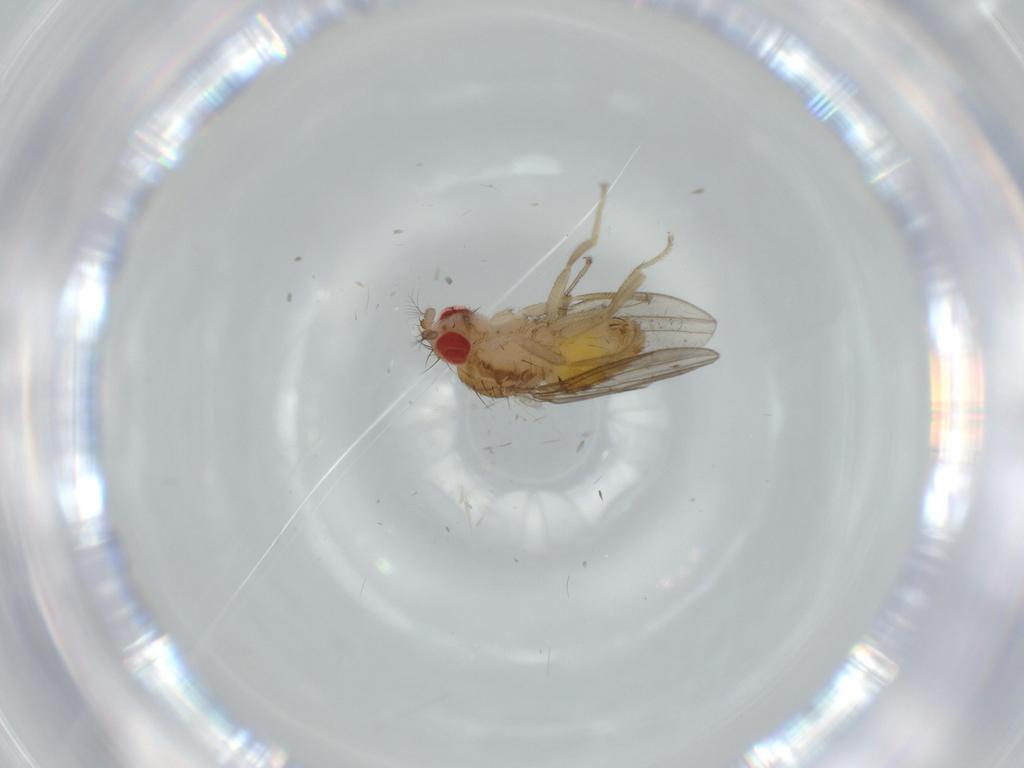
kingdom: Animalia
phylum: Arthropoda
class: Insecta
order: Diptera
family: Drosophilidae
